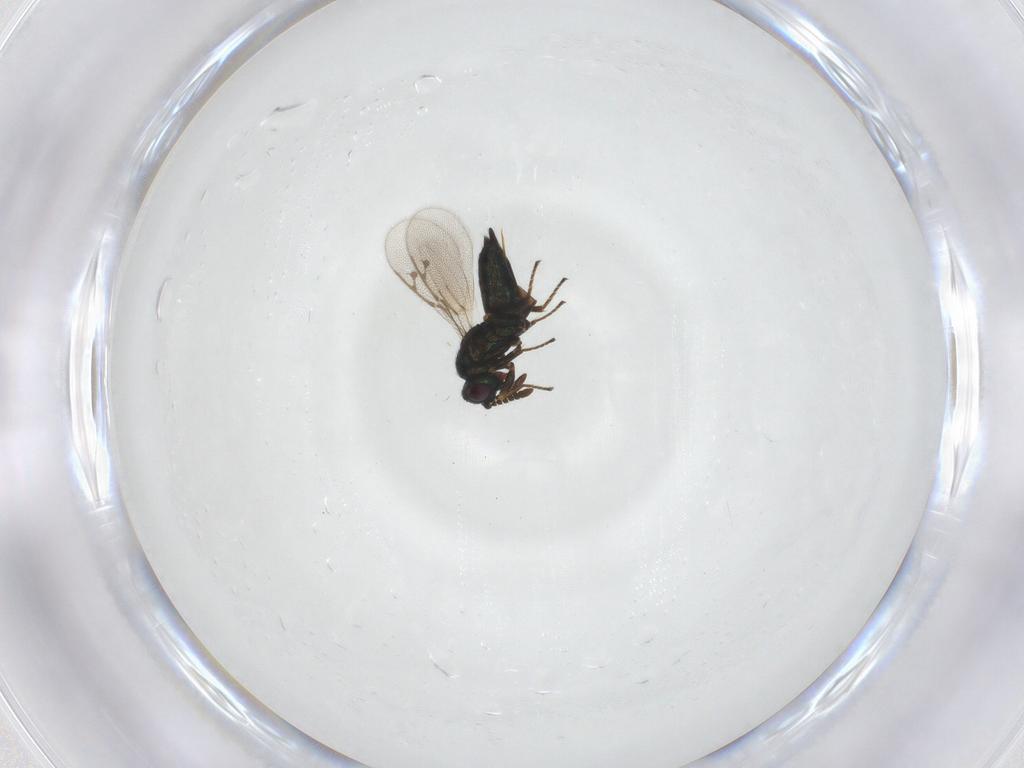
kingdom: Animalia
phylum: Arthropoda
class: Insecta
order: Hymenoptera
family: Pirenidae
